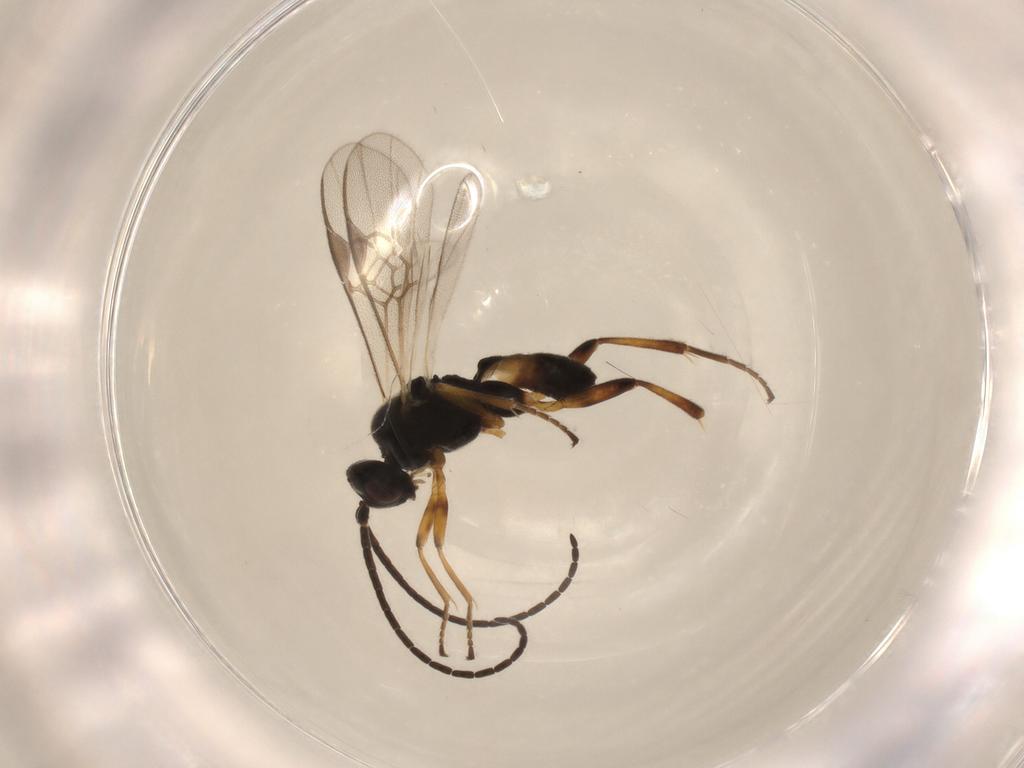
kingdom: Animalia
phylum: Arthropoda
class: Insecta
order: Hymenoptera
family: Braconidae
